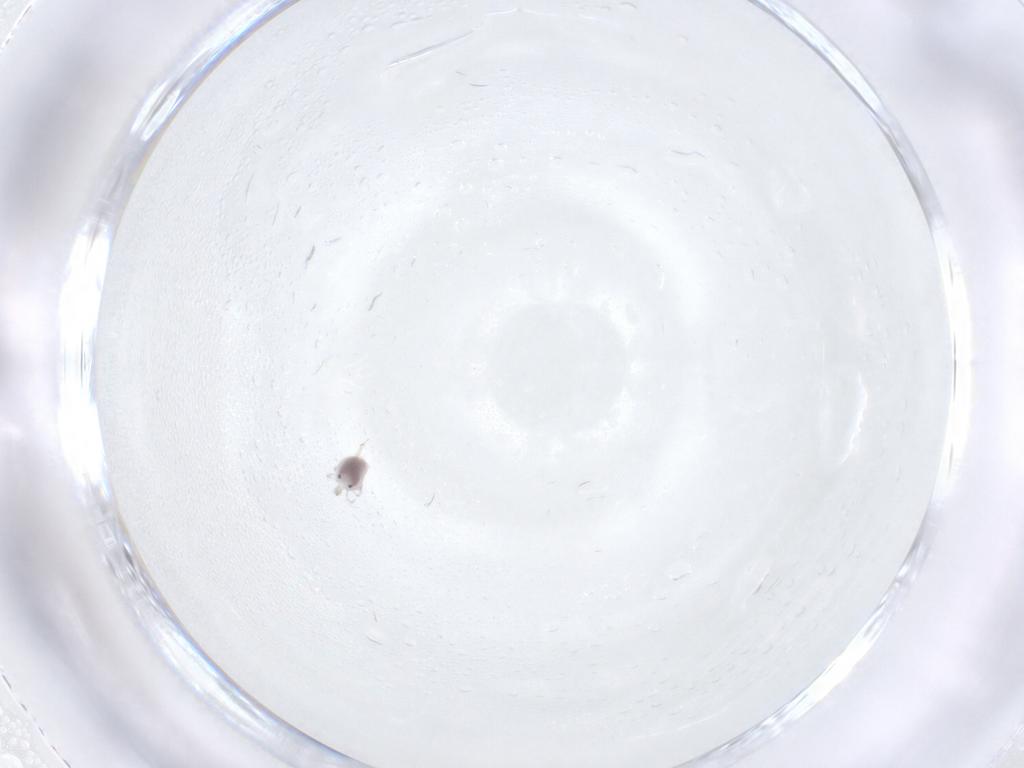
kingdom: Animalia
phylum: Arthropoda
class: Arachnida
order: Trombidiformes
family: Pionidae
